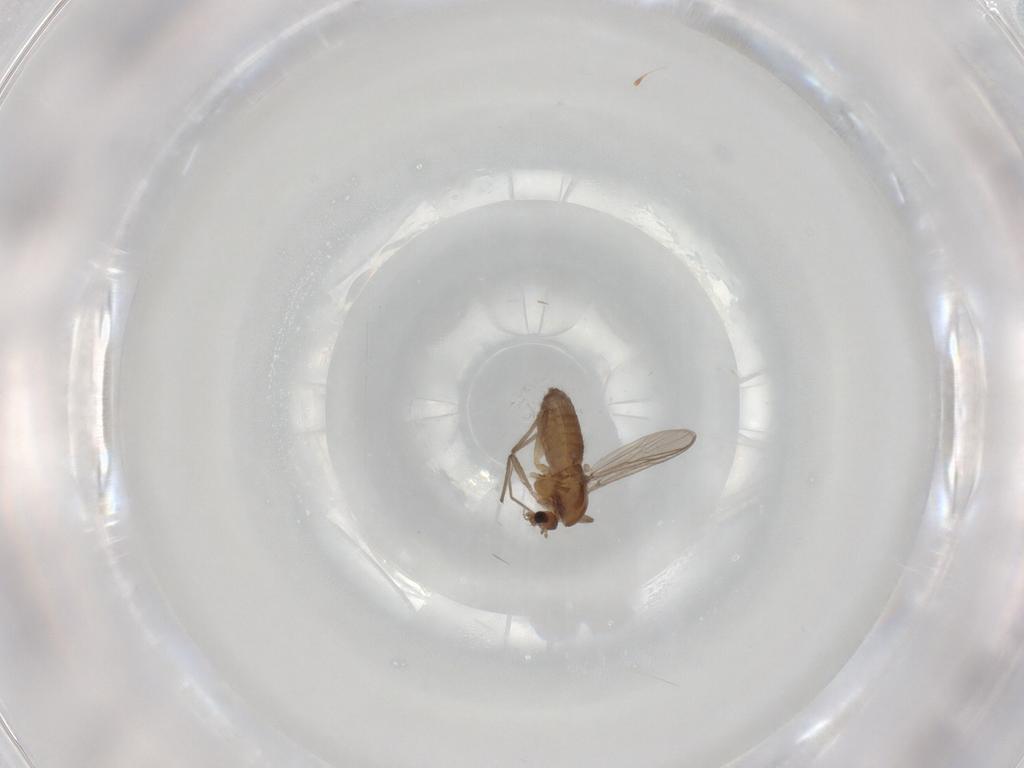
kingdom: Animalia
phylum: Arthropoda
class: Insecta
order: Diptera
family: Chironomidae
